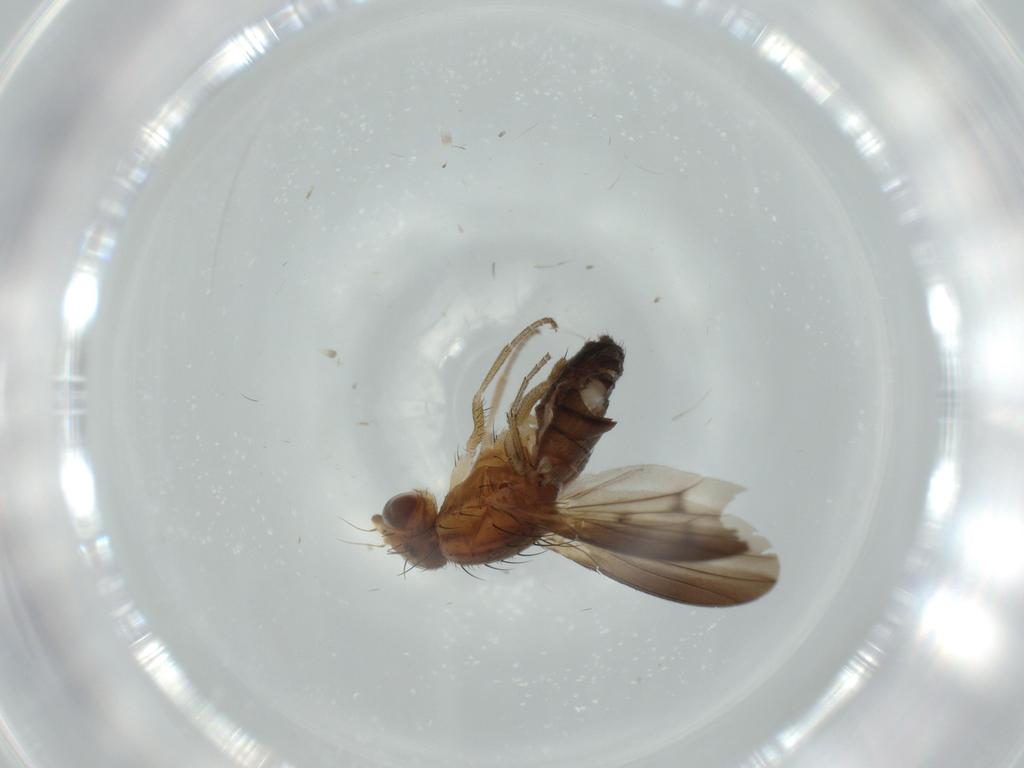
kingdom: Animalia
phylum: Arthropoda
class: Insecta
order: Diptera
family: Heleomyzidae
